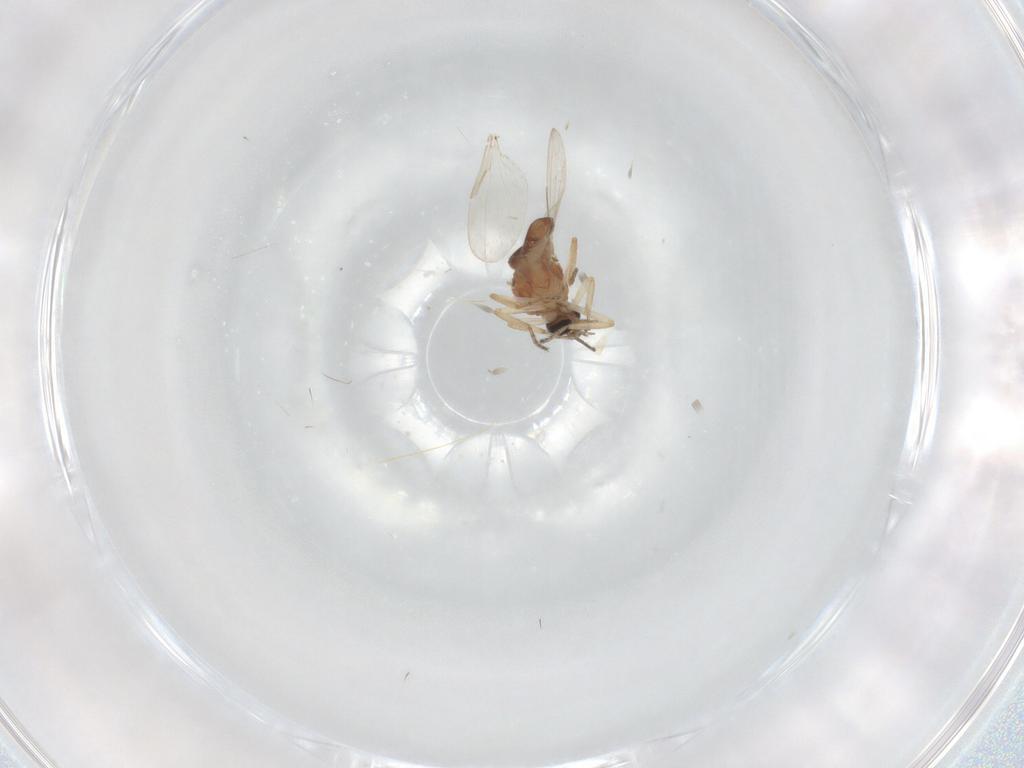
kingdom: Animalia
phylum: Arthropoda
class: Insecta
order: Diptera
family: Ceratopogonidae
